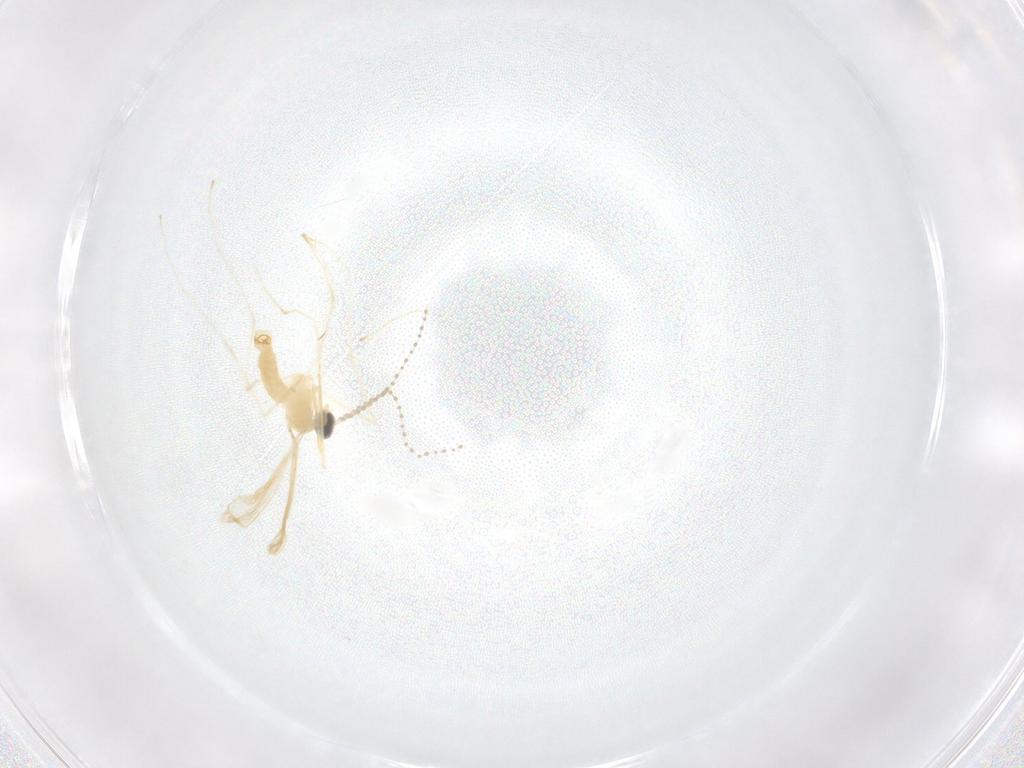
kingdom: Animalia
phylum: Arthropoda
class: Insecta
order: Diptera
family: Cecidomyiidae
